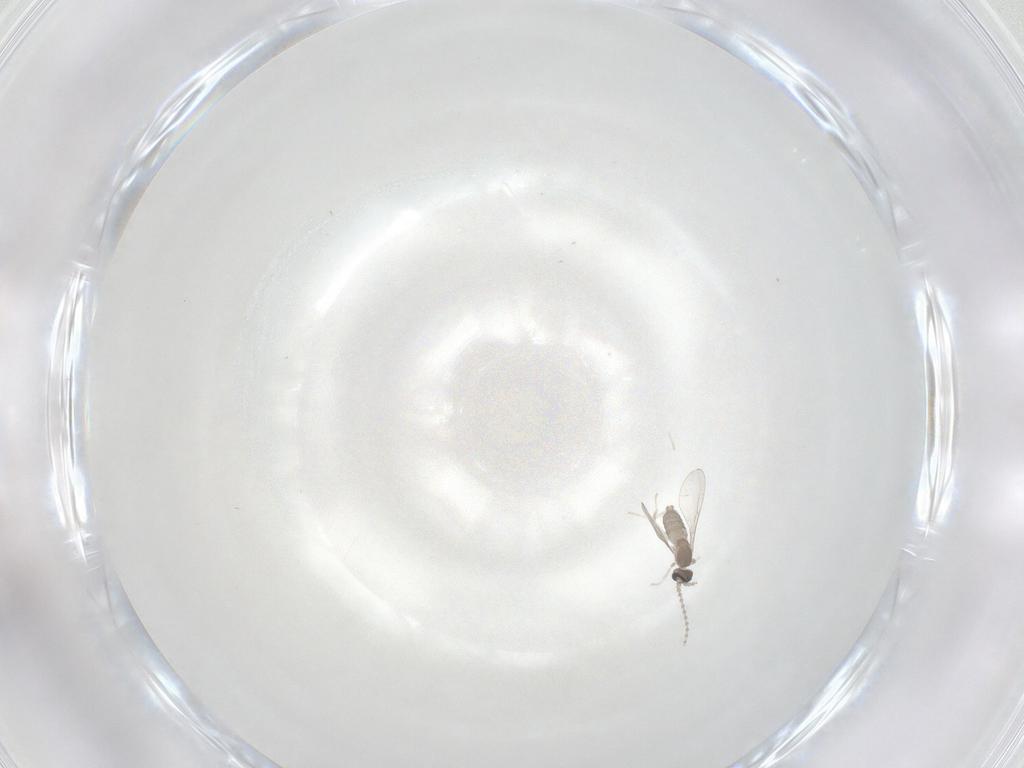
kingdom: Animalia
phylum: Arthropoda
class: Insecta
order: Diptera
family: Cecidomyiidae
